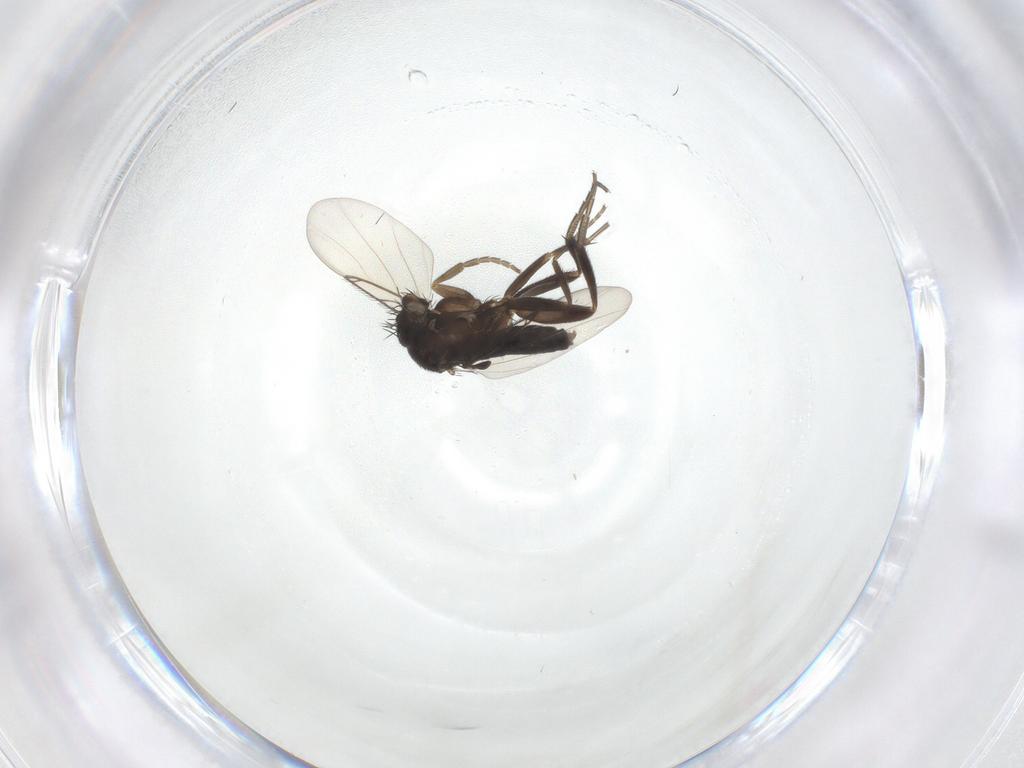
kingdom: Animalia
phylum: Arthropoda
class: Insecta
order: Diptera
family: Phoridae
